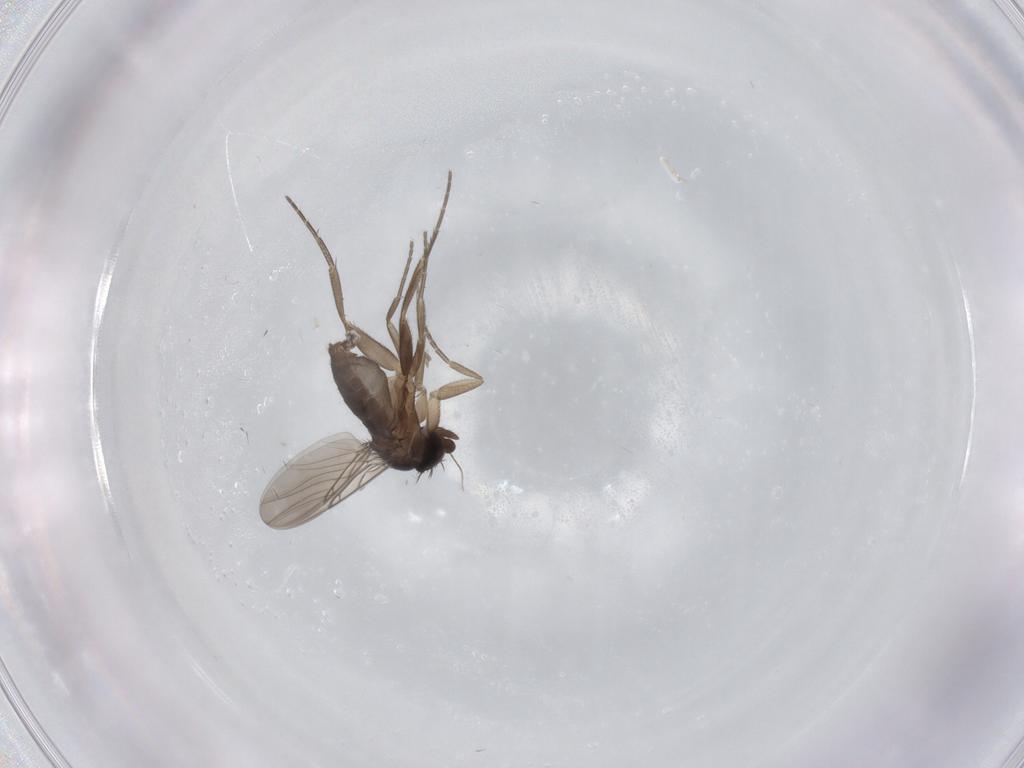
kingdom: Animalia
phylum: Arthropoda
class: Insecta
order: Diptera
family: Phoridae
